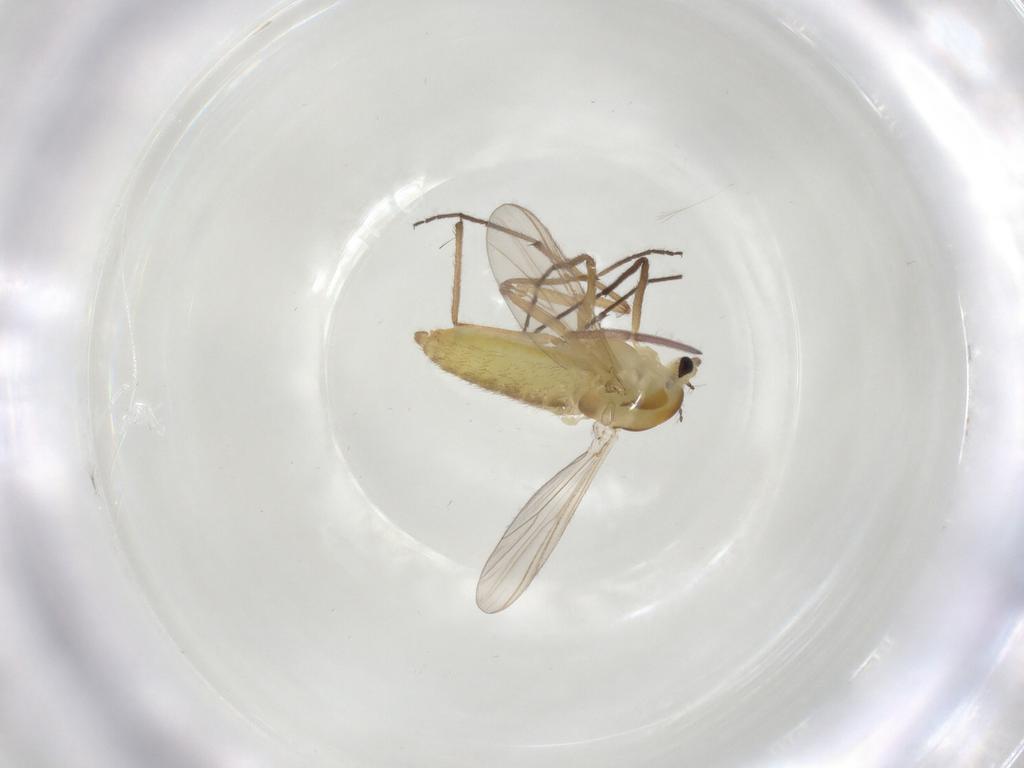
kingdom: Animalia
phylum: Arthropoda
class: Insecta
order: Diptera
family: Chironomidae
